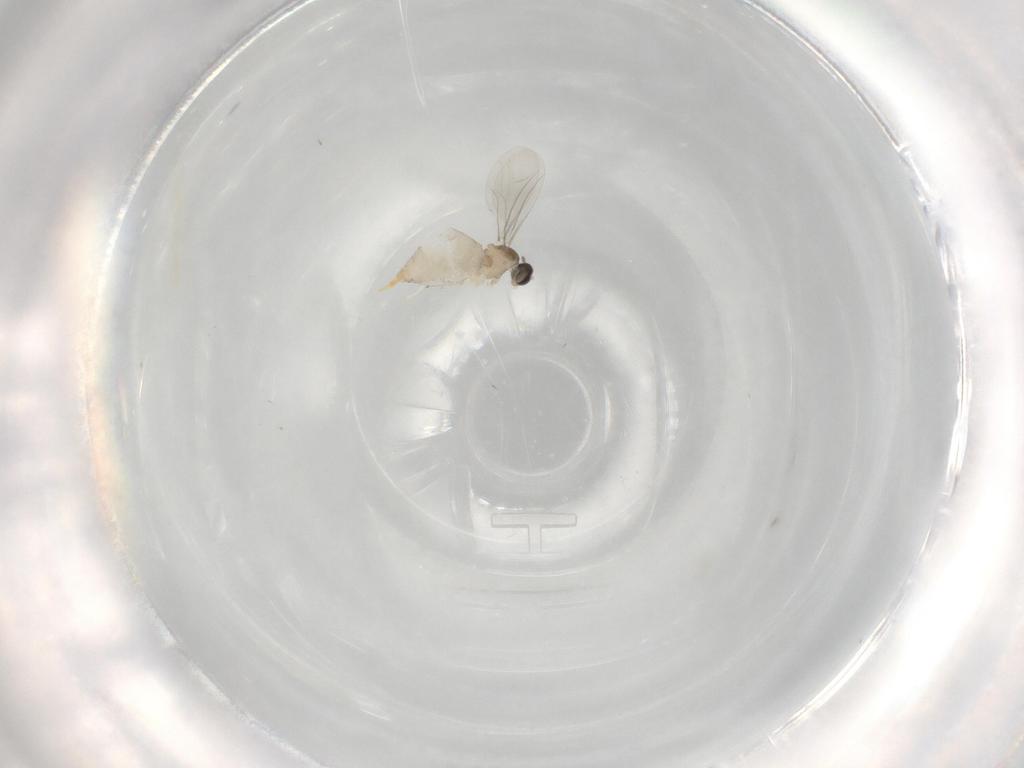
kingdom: Animalia
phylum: Arthropoda
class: Insecta
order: Diptera
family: Cecidomyiidae
